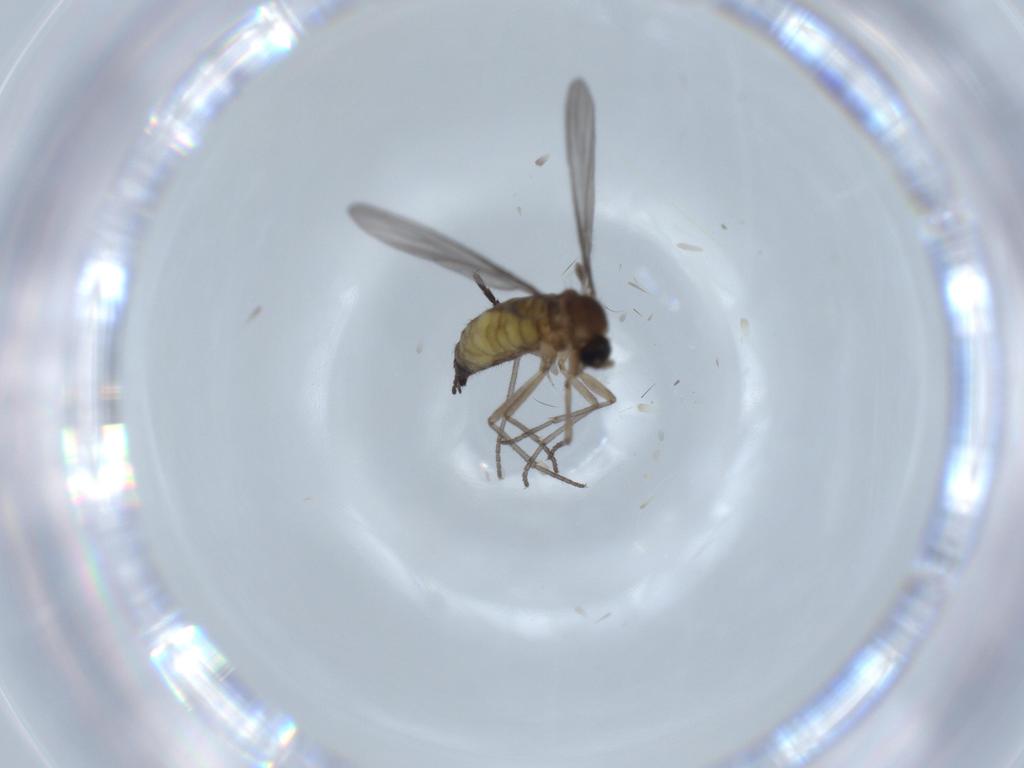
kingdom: Animalia
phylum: Arthropoda
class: Insecta
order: Diptera
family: Sciaridae
